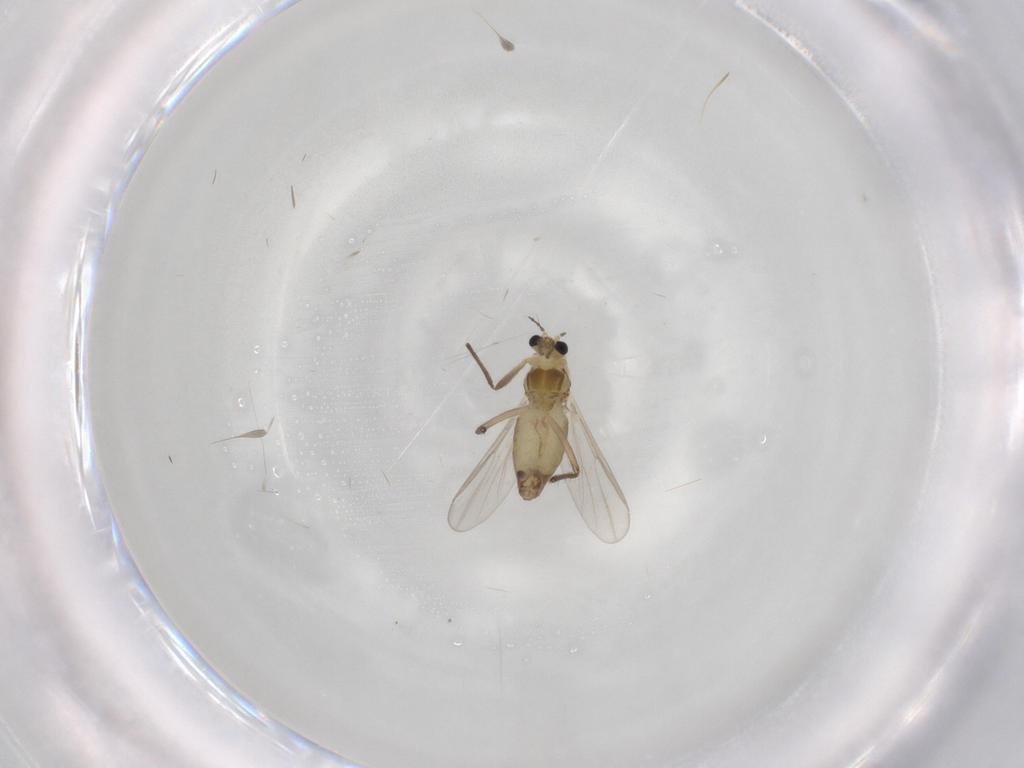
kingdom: Animalia
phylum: Arthropoda
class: Insecta
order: Diptera
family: Chironomidae
